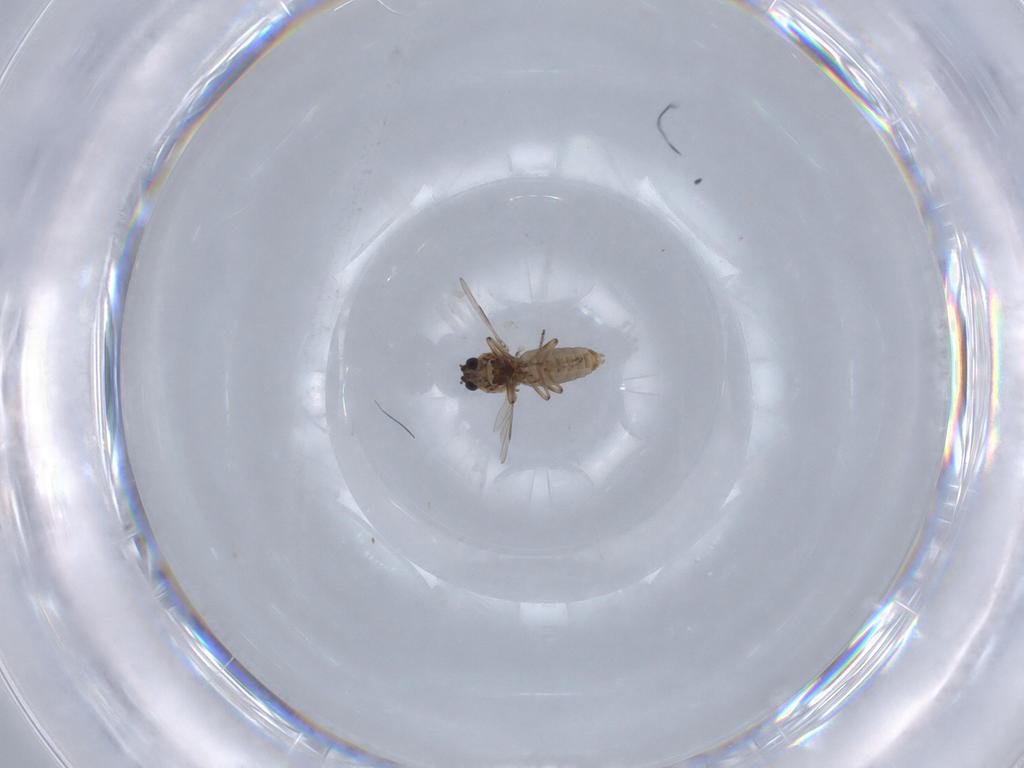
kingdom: Animalia
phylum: Arthropoda
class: Insecta
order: Diptera
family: Ceratopogonidae
